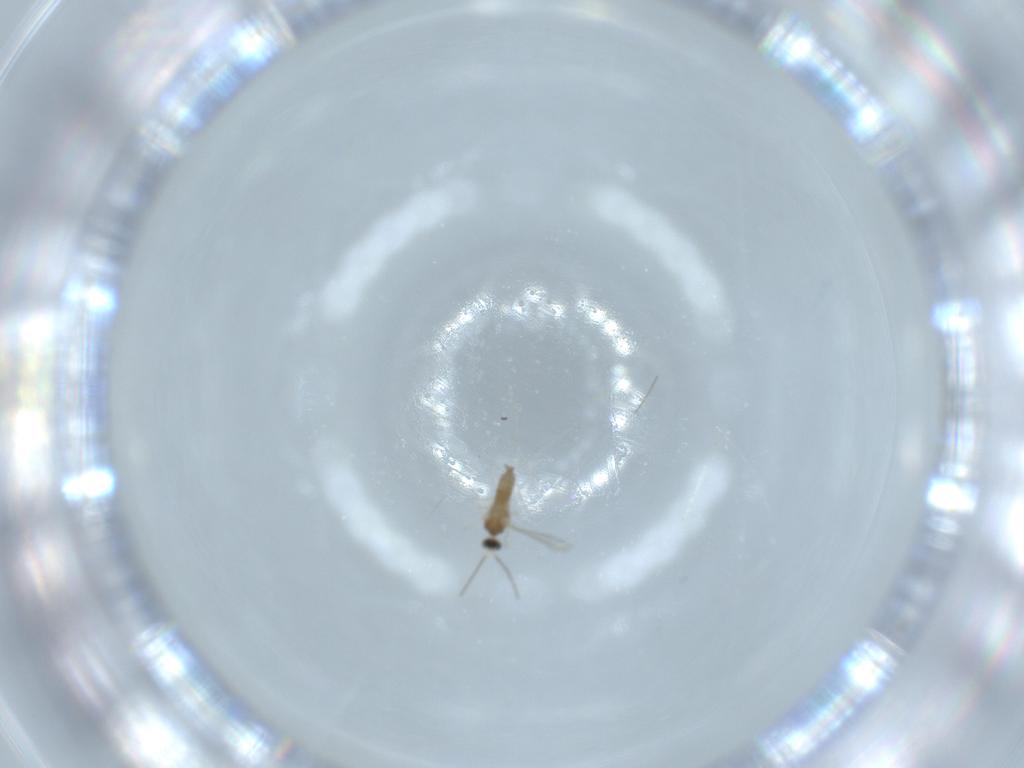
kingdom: Animalia
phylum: Arthropoda
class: Insecta
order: Diptera
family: Cecidomyiidae
